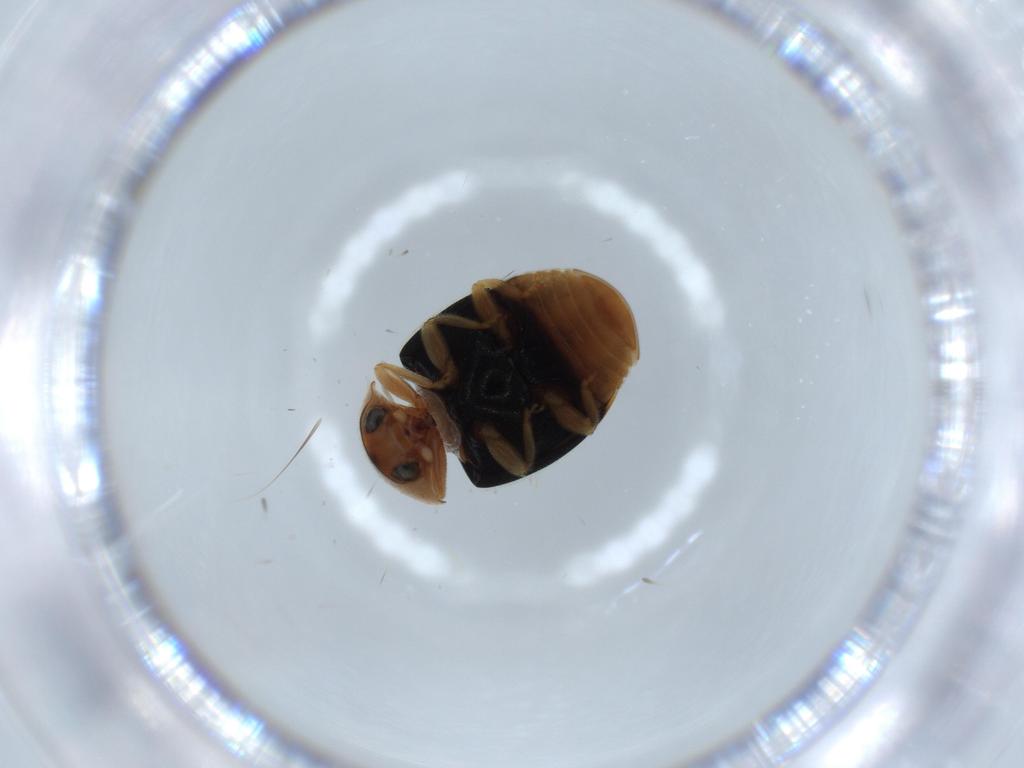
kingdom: Animalia
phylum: Arthropoda
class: Insecta
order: Coleoptera
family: Coccinellidae
